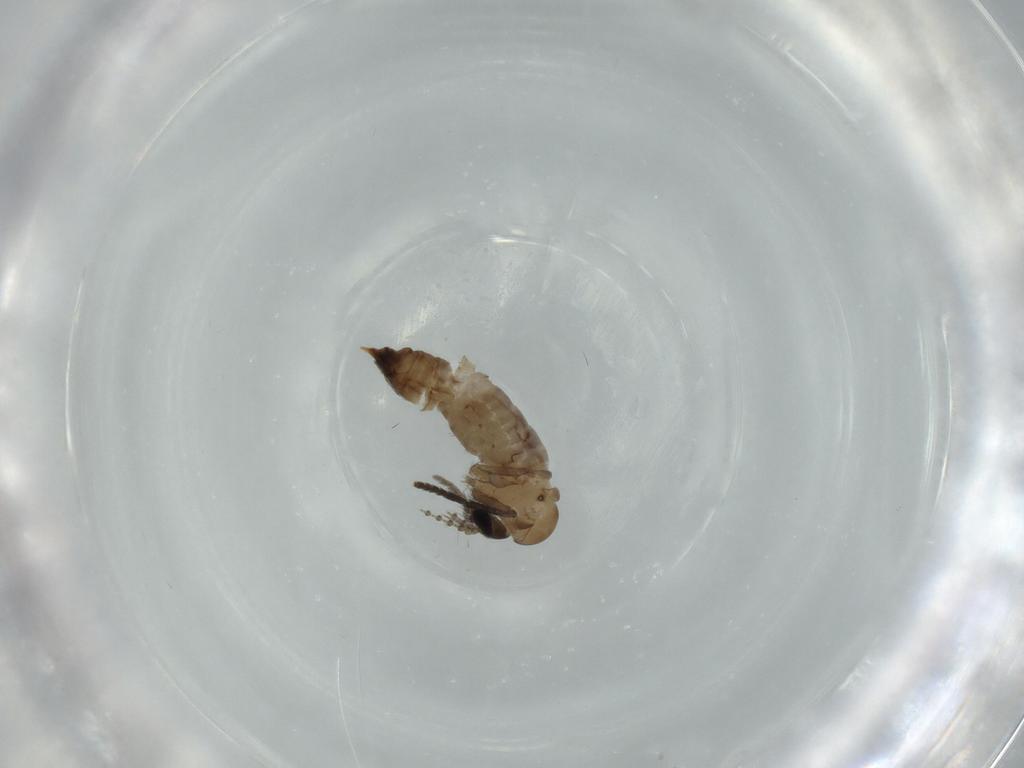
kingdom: Animalia
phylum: Arthropoda
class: Insecta
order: Diptera
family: Psychodidae
